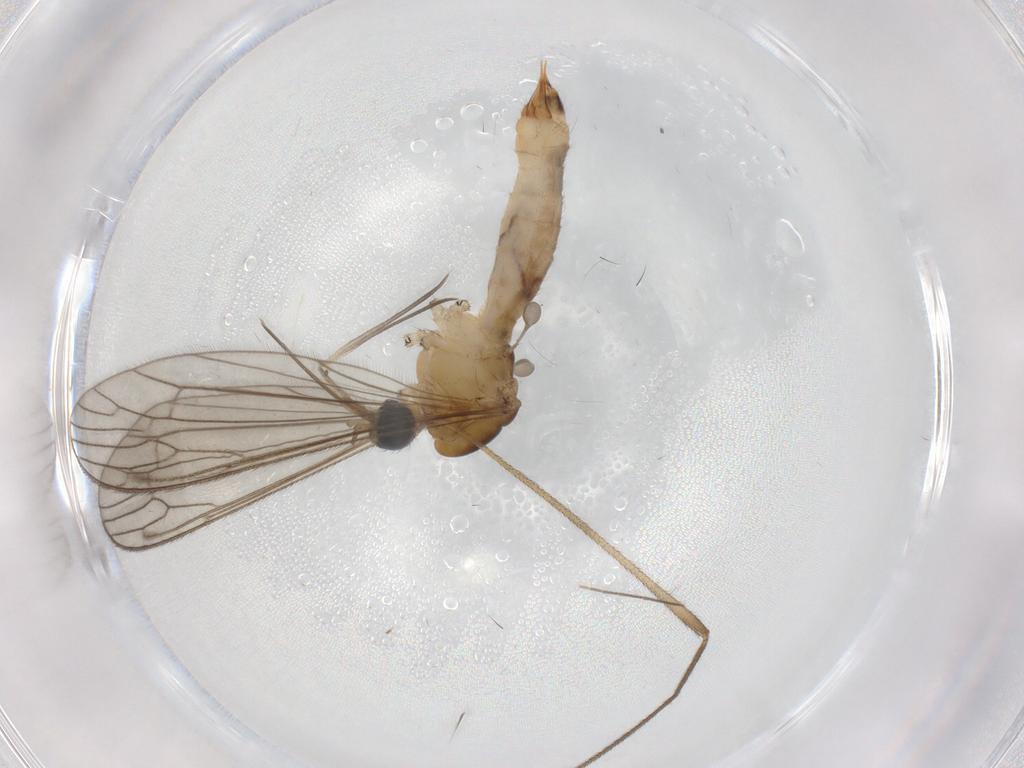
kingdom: Animalia
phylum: Arthropoda
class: Insecta
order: Diptera
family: Limoniidae
